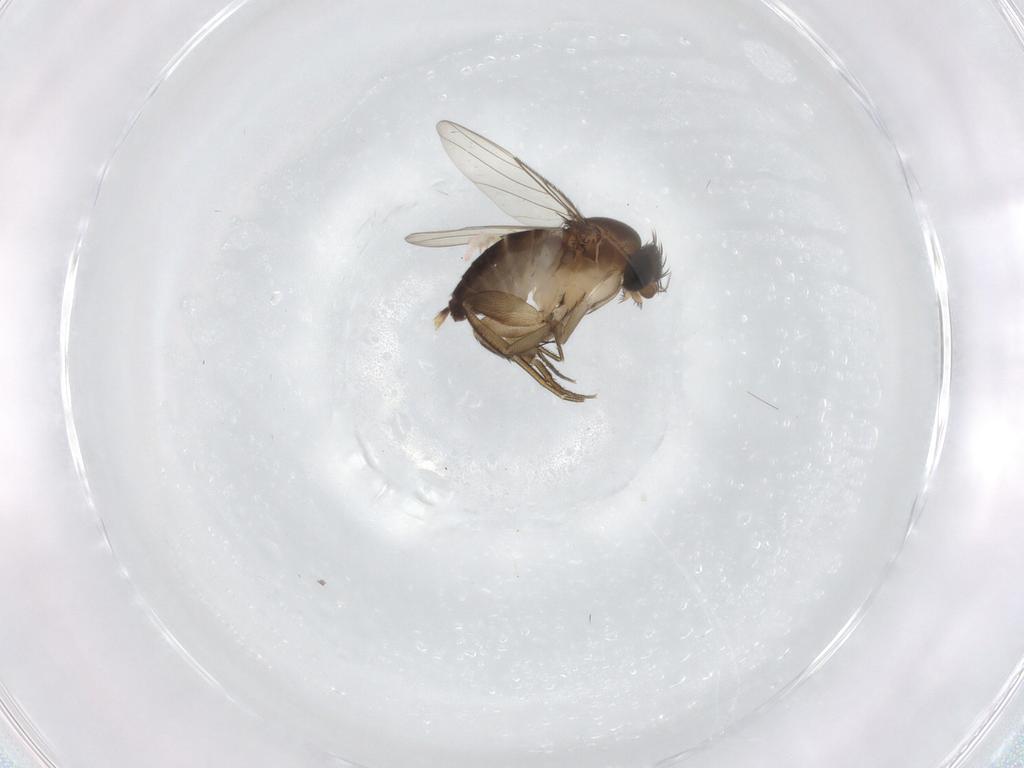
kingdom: Animalia
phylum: Arthropoda
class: Insecta
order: Diptera
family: Phoridae
